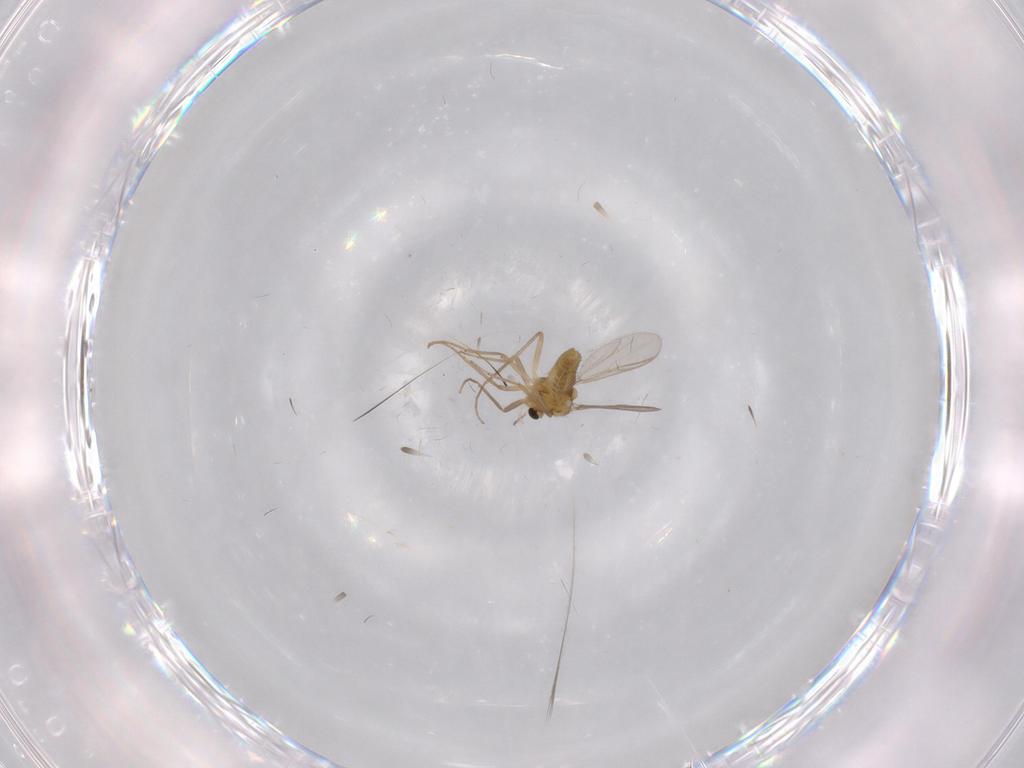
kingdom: Animalia
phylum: Arthropoda
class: Insecta
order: Diptera
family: Chironomidae
